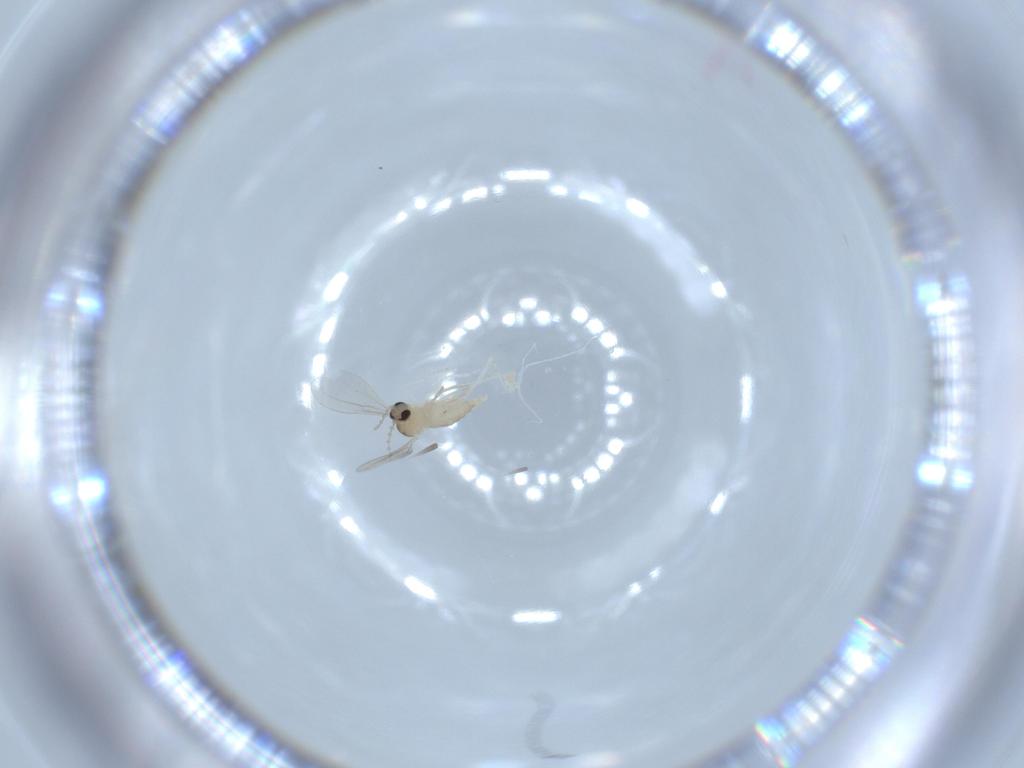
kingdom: Animalia
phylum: Arthropoda
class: Insecta
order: Diptera
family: Cecidomyiidae
